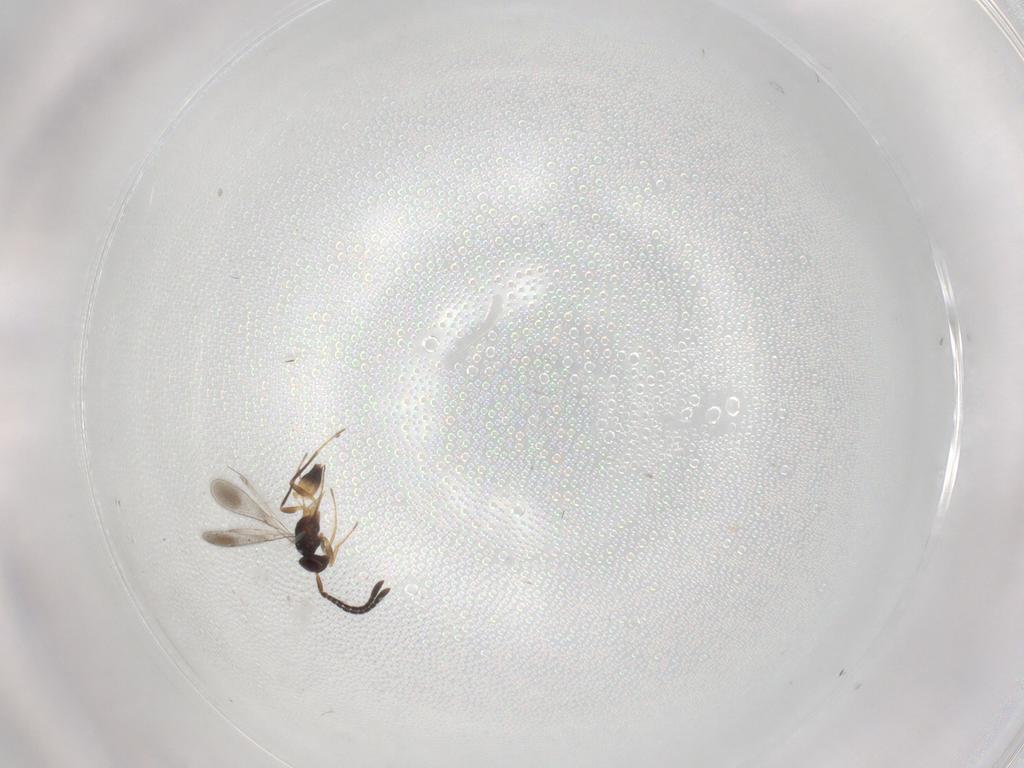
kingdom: Animalia
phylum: Arthropoda
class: Insecta
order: Hymenoptera
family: Mymaridae
